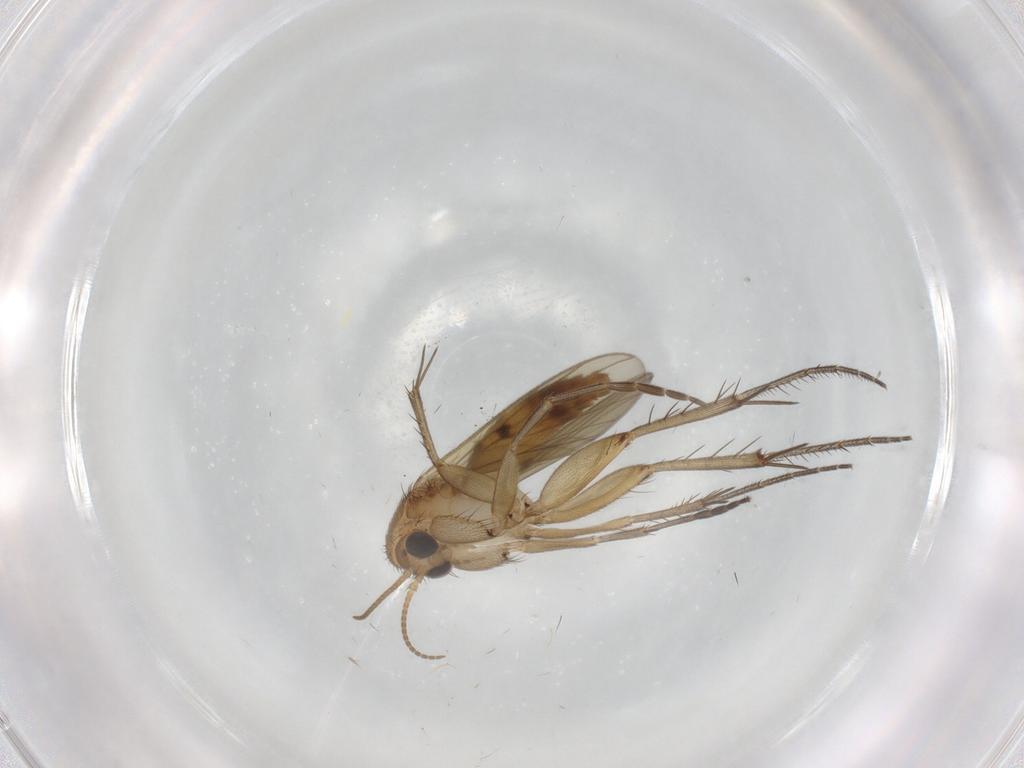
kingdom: Animalia
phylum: Arthropoda
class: Insecta
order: Diptera
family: Mycetophilidae
